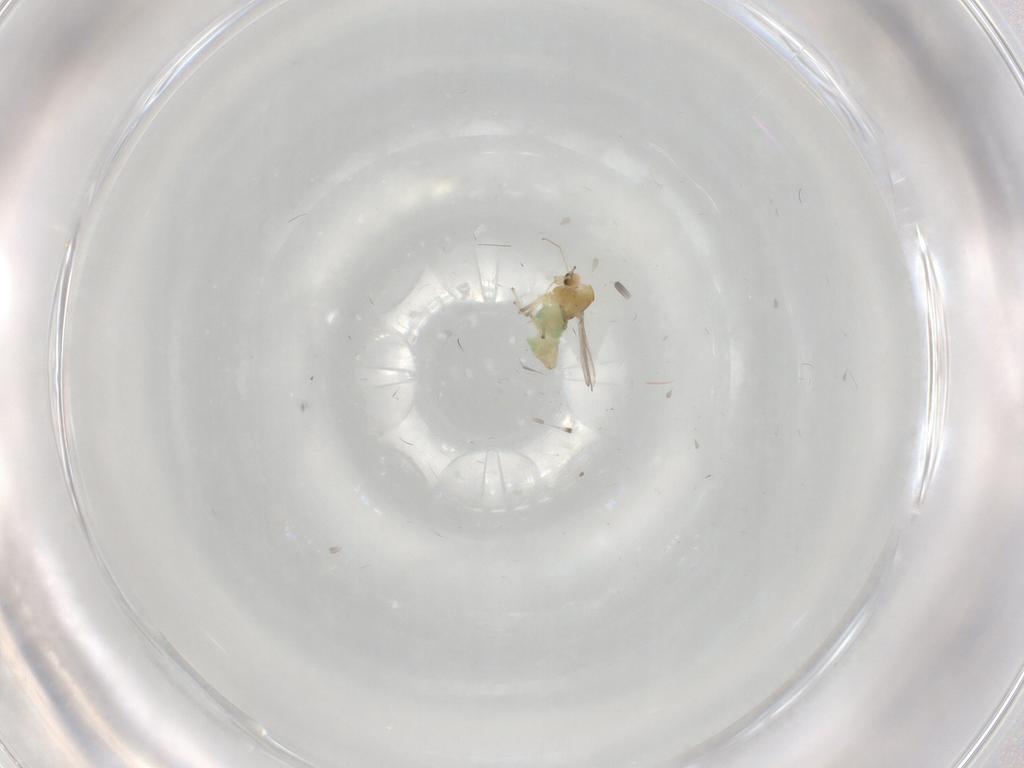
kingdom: Animalia
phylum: Arthropoda
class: Insecta
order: Diptera
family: Chironomidae
